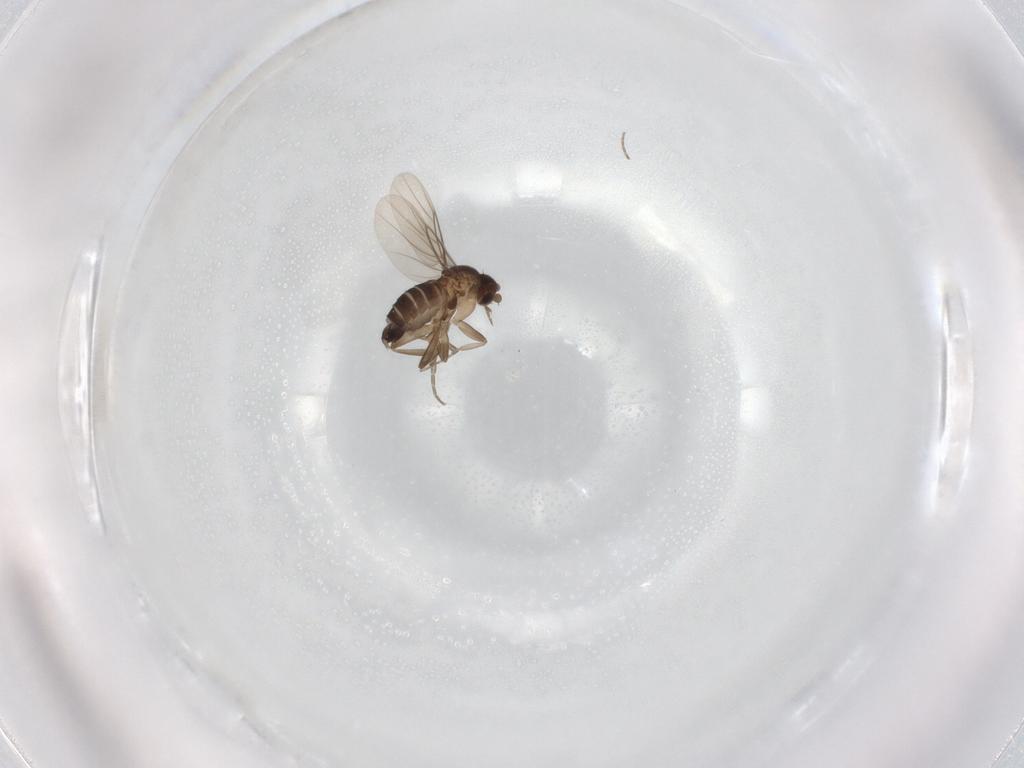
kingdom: Animalia
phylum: Arthropoda
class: Insecta
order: Diptera
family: Phoridae
